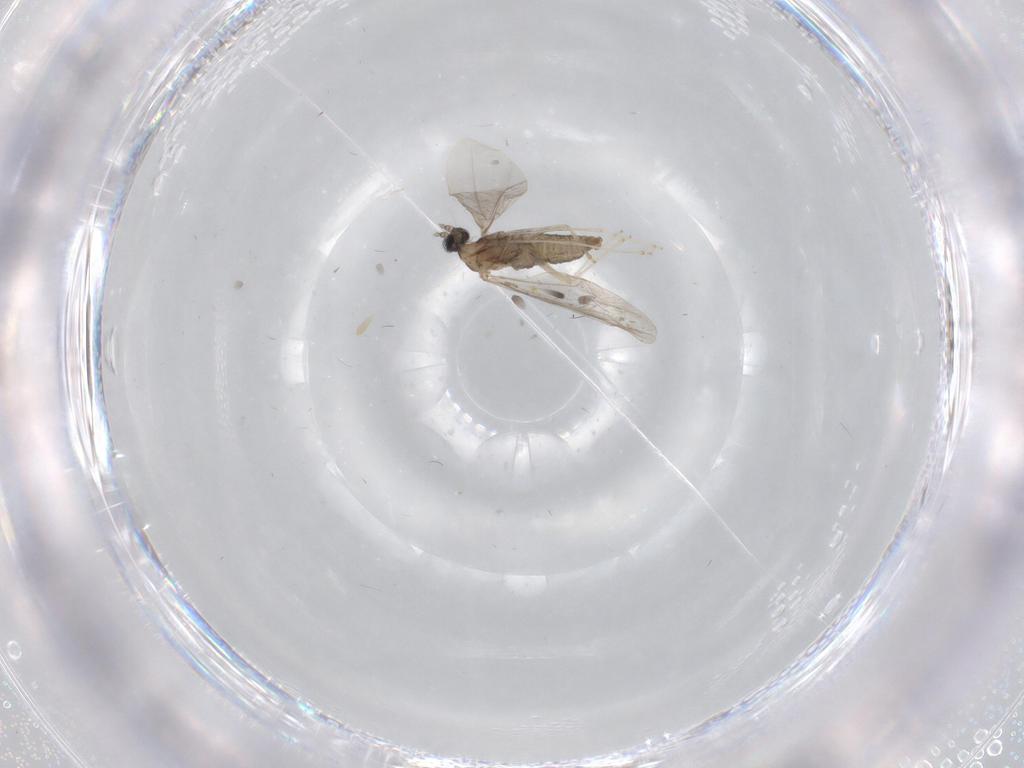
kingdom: Animalia
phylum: Arthropoda
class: Insecta
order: Diptera
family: Cecidomyiidae
